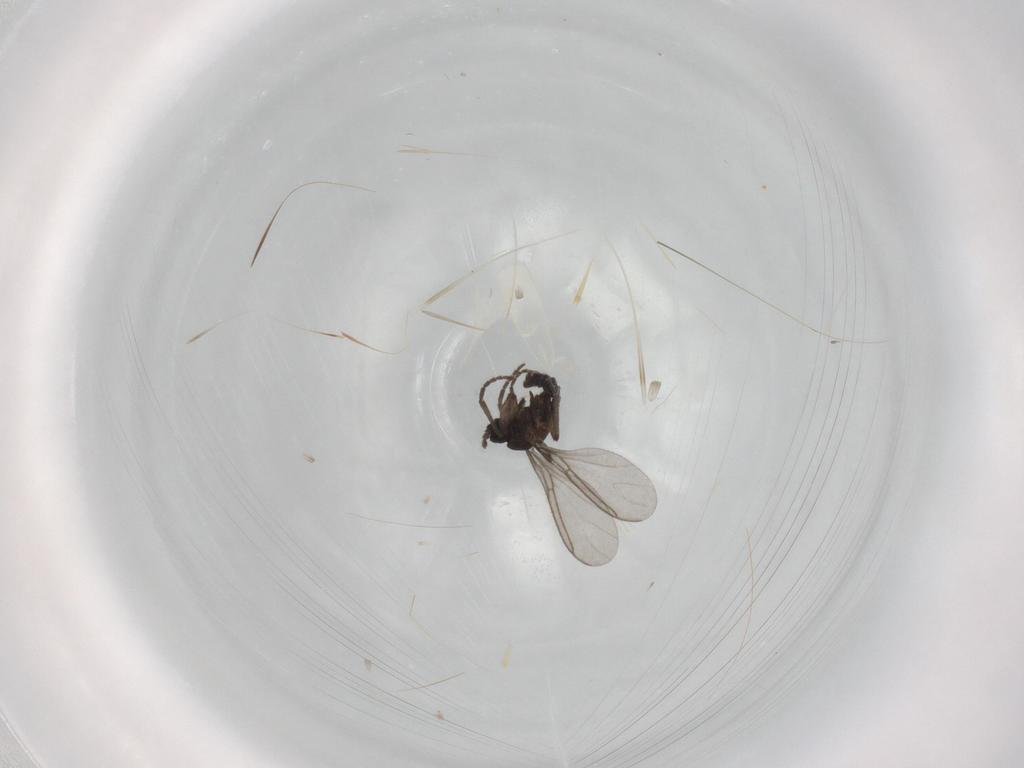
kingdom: Animalia
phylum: Arthropoda
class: Insecta
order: Diptera
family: Sciaridae
